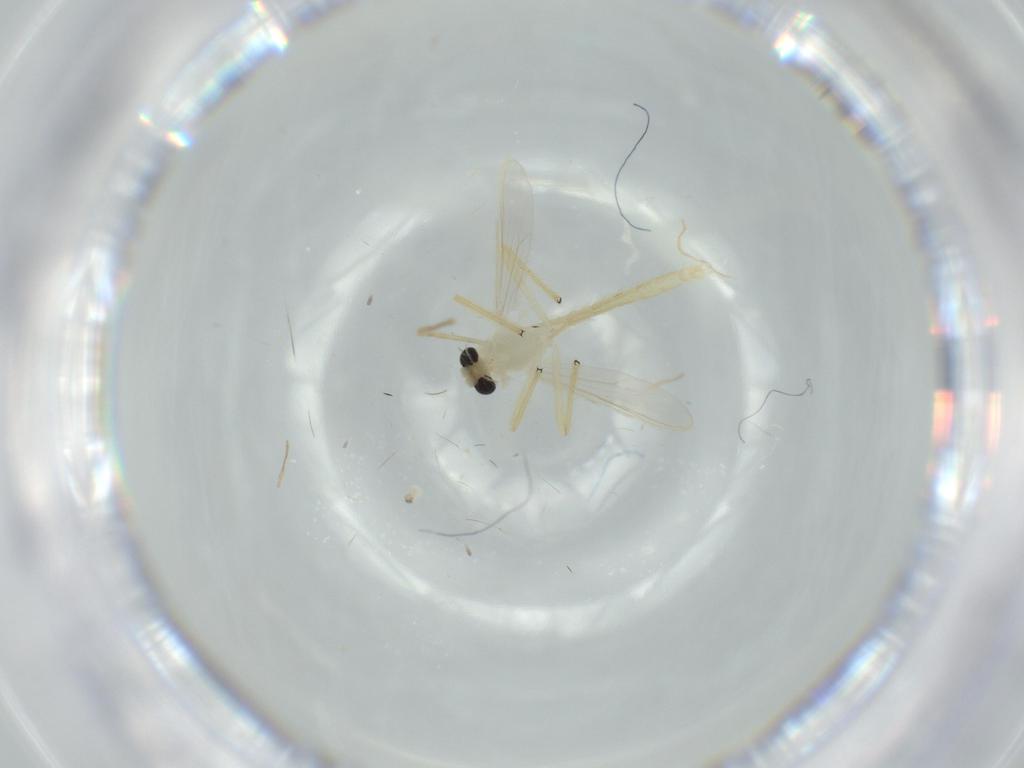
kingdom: Animalia
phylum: Arthropoda
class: Insecta
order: Diptera
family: Chironomidae
